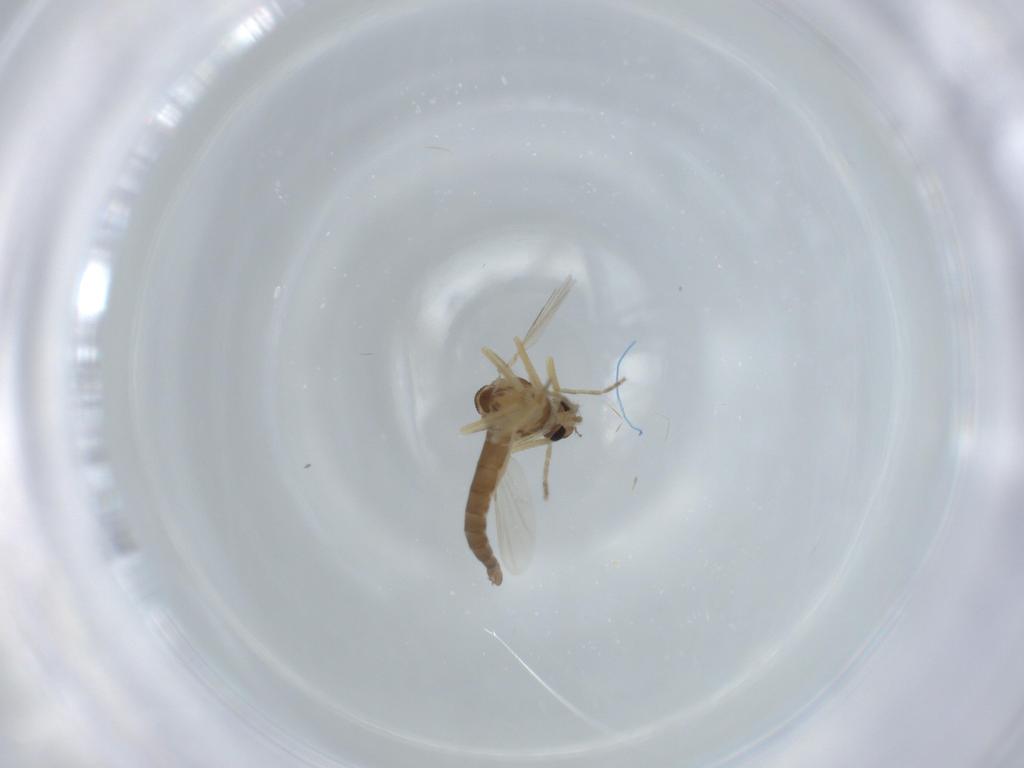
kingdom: Animalia
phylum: Arthropoda
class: Insecta
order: Diptera
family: Ceratopogonidae
